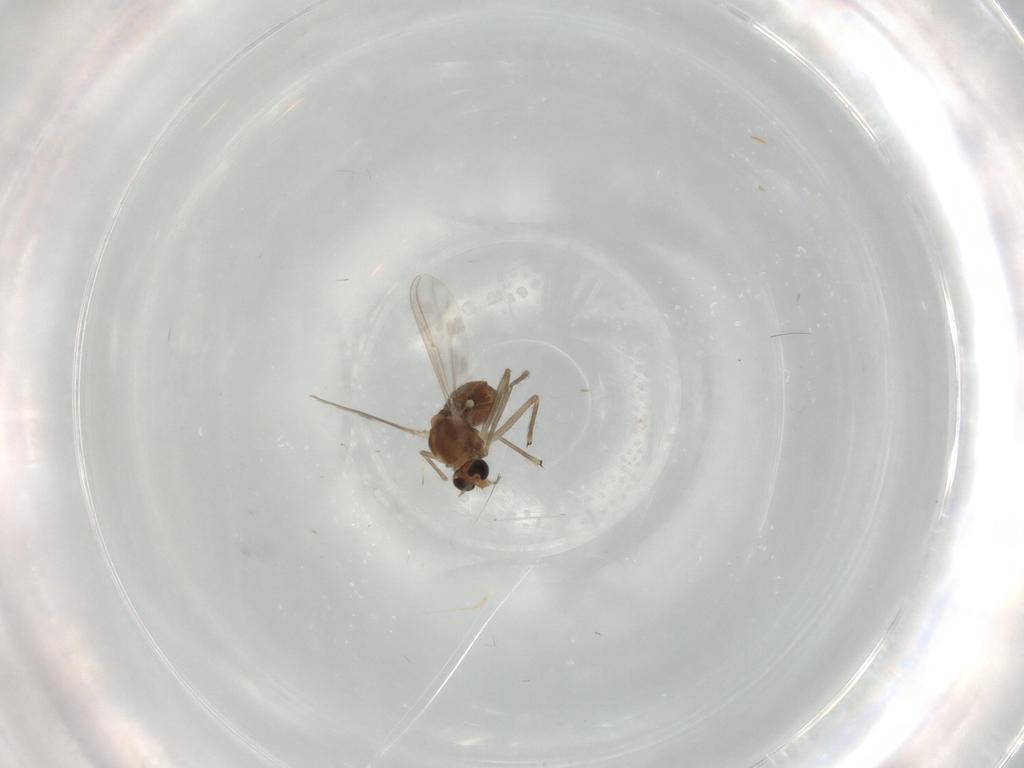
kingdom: Animalia
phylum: Arthropoda
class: Insecta
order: Diptera
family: Chironomidae
